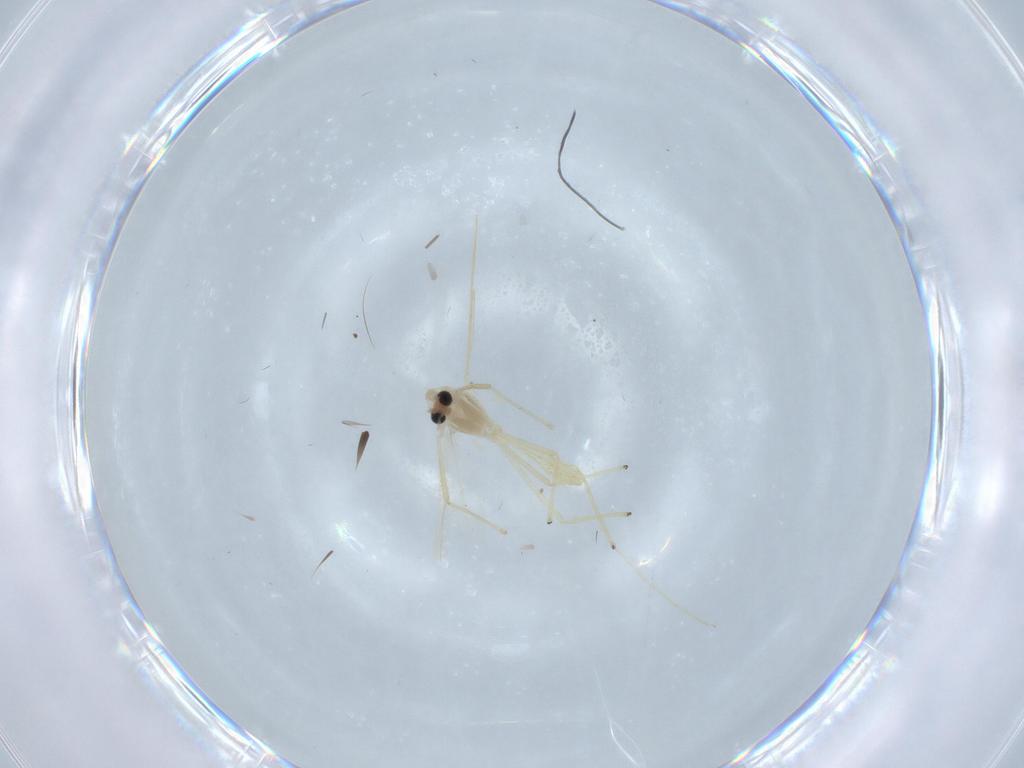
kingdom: Animalia
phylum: Arthropoda
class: Insecta
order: Diptera
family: Chironomidae
